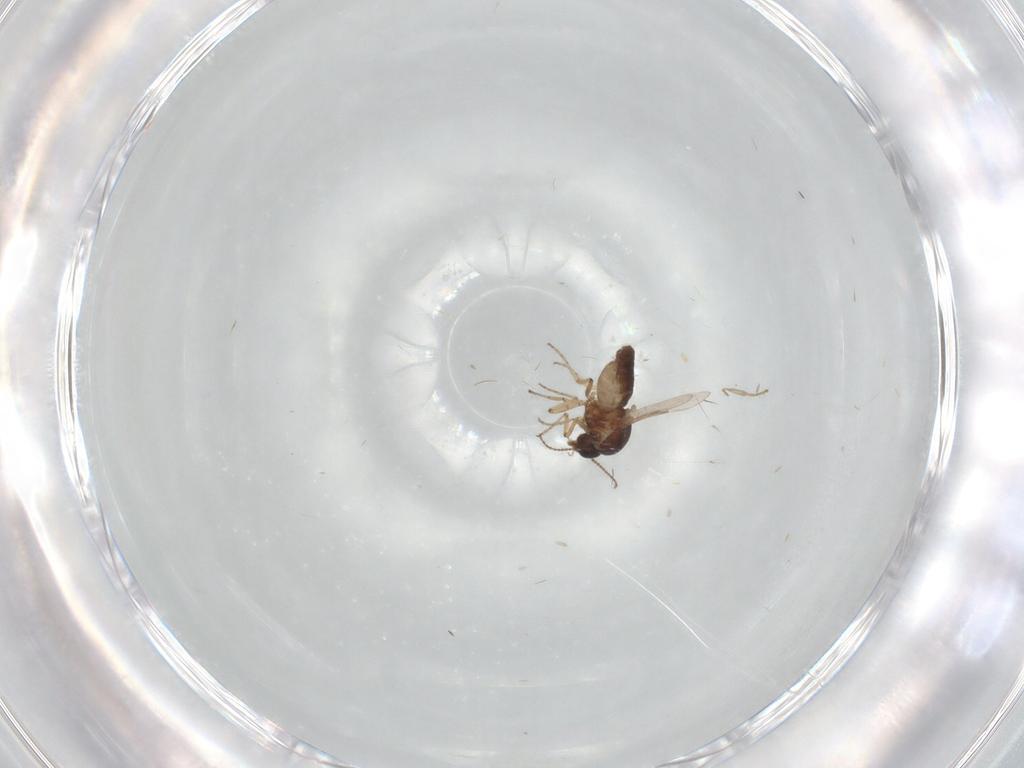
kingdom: Animalia
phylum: Arthropoda
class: Insecta
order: Diptera
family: Ceratopogonidae
